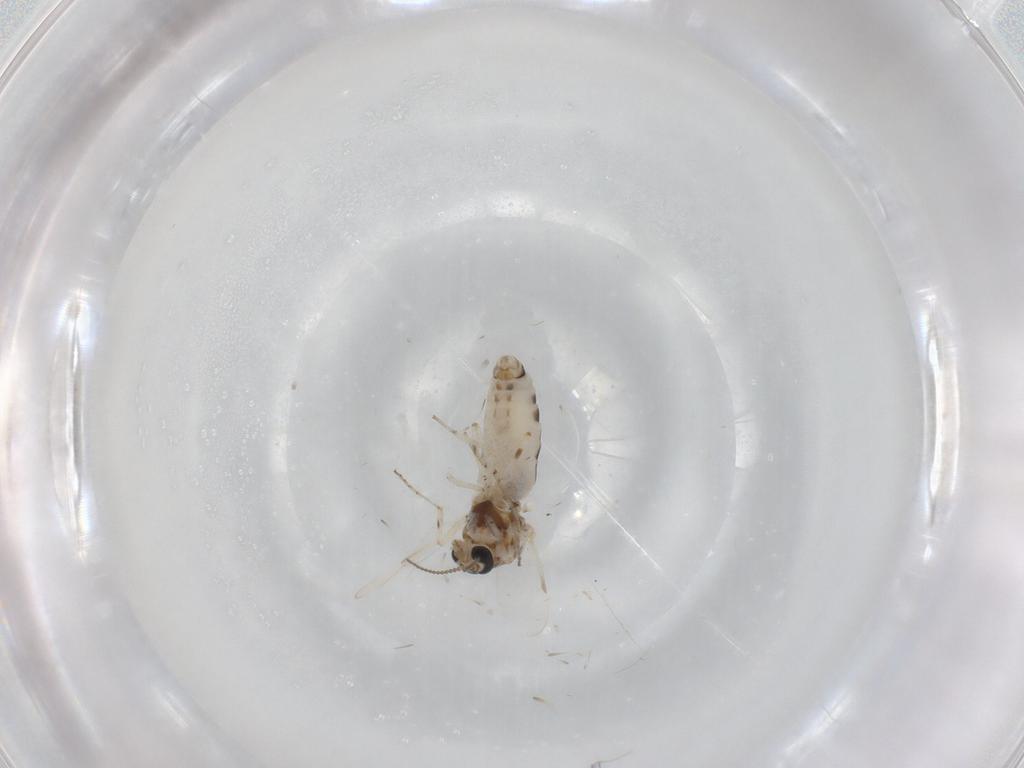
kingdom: Animalia
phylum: Arthropoda
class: Insecta
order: Diptera
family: Ceratopogonidae
